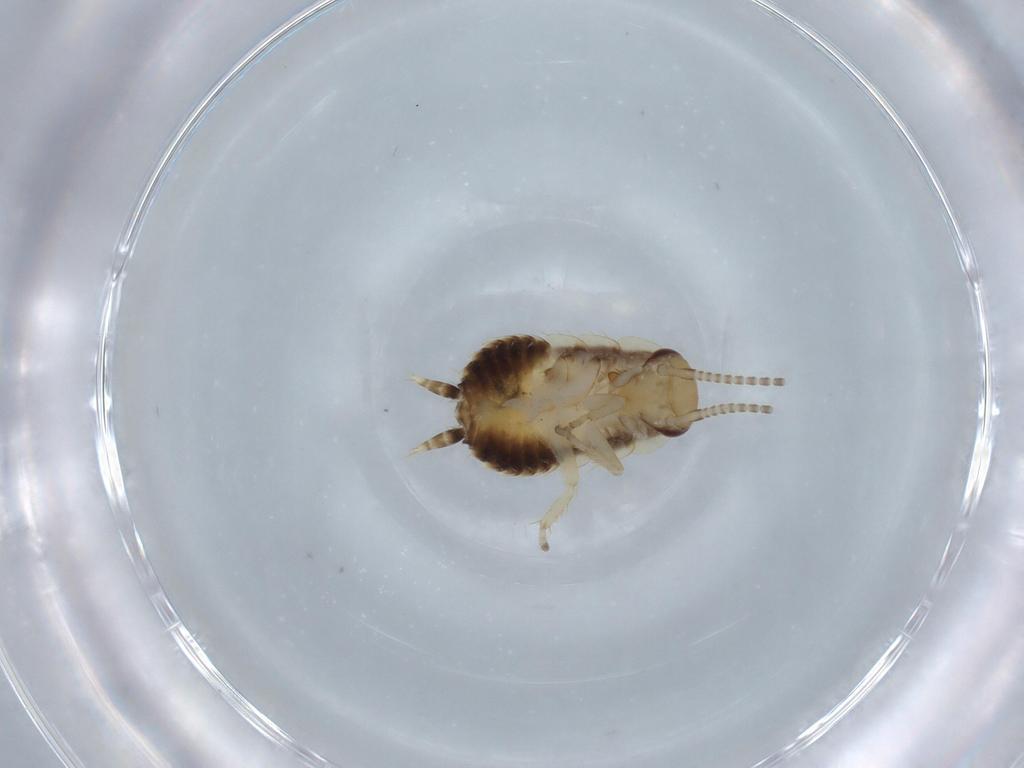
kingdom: Animalia
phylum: Arthropoda
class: Insecta
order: Blattodea
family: Ectobiidae
